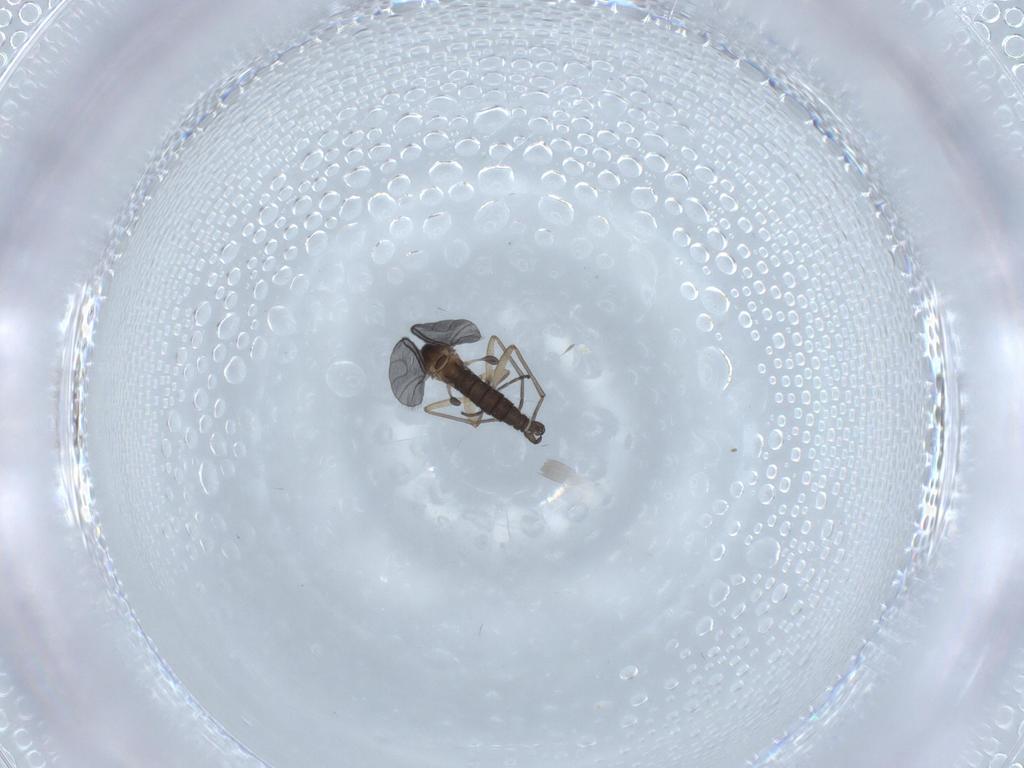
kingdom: Animalia
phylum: Arthropoda
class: Insecta
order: Diptera
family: Sciaridae
